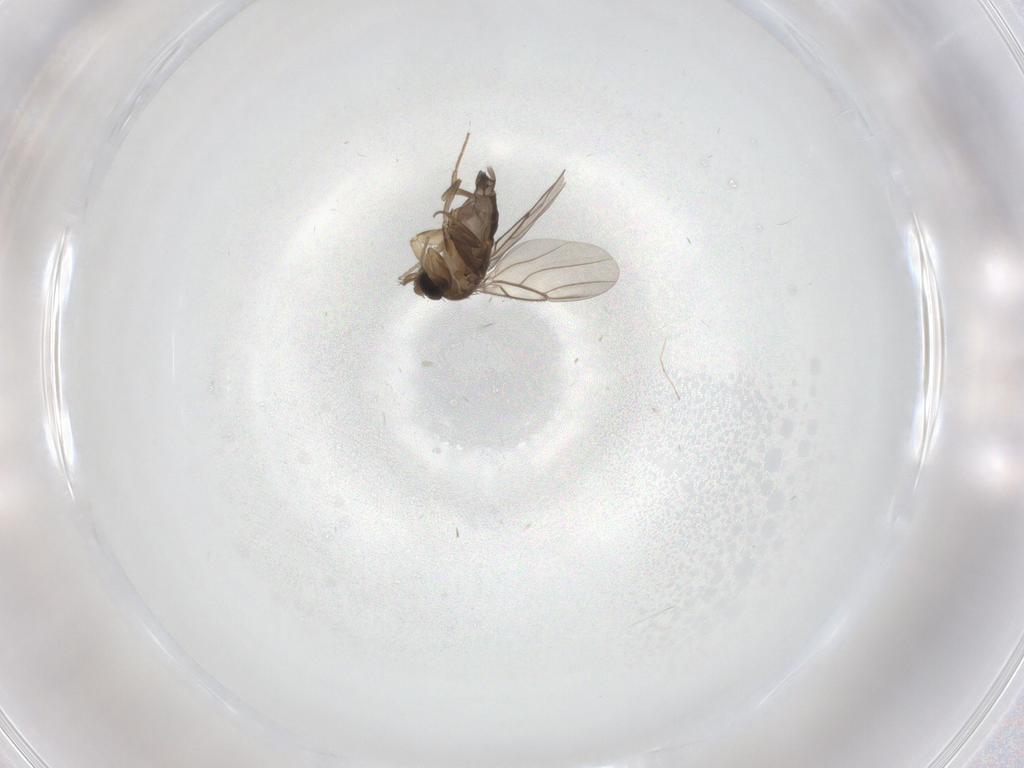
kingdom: Animalia
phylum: Arthropoda
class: Insecta
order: Diptera
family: Phoridae
